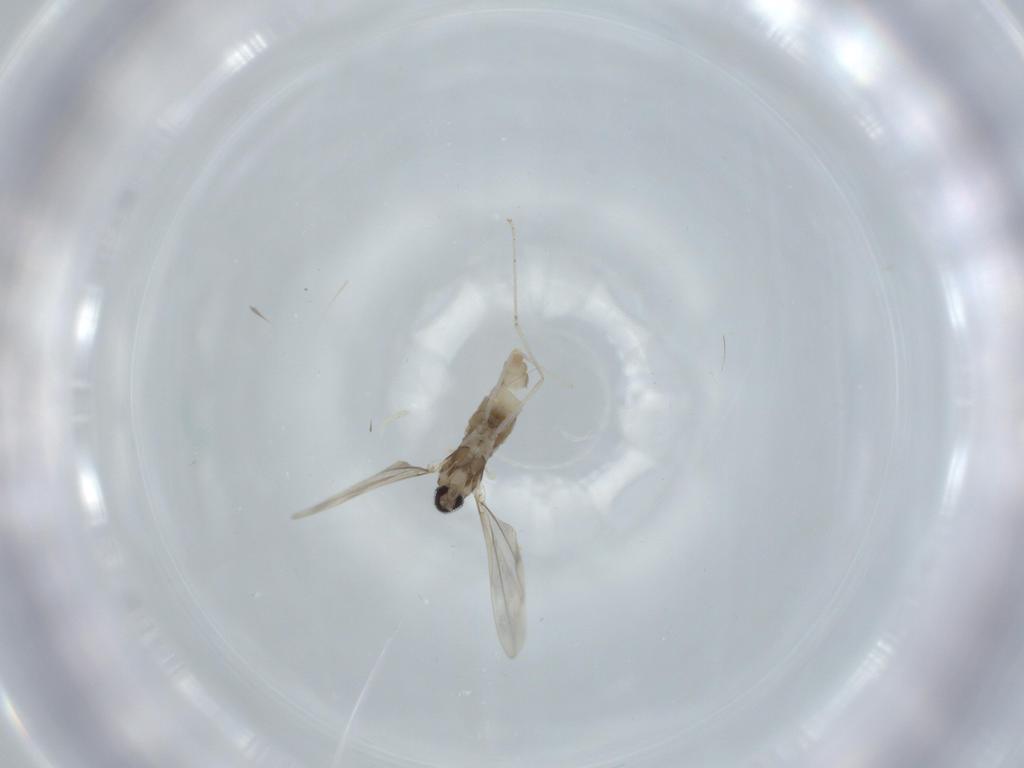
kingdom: Animalia
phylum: Arthropoda
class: Insecta
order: Diptera
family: Cecidomyiidae
